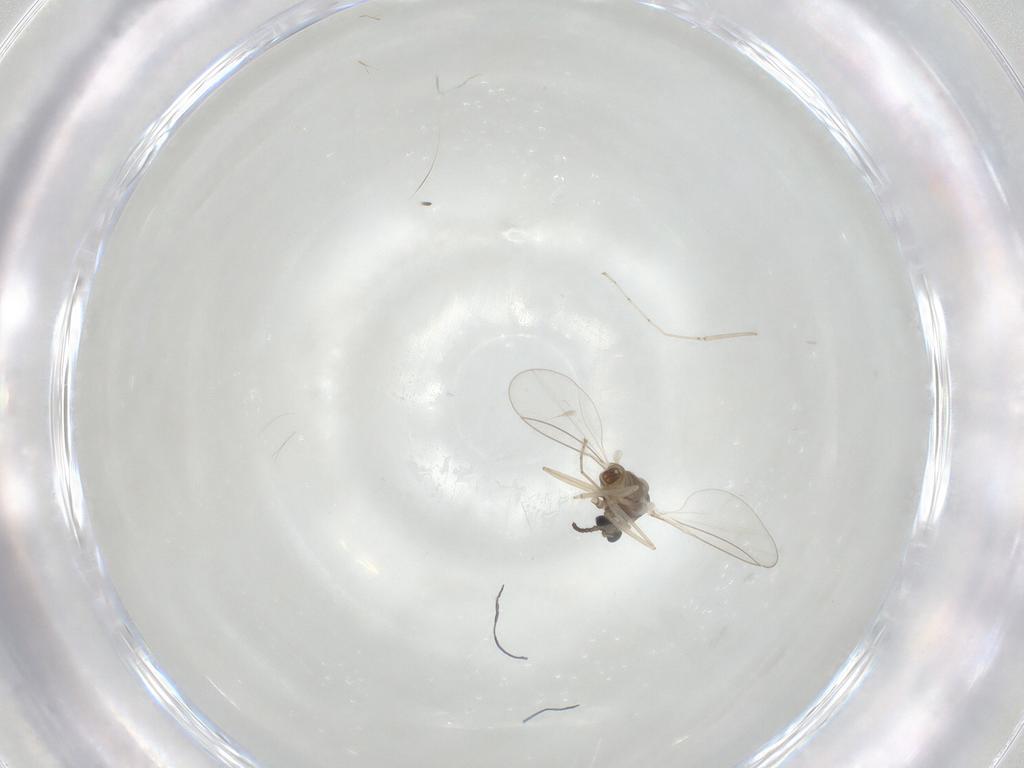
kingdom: Animalia
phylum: Arthropoda
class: Insecta
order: Diptera
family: Cecidomyiidae
